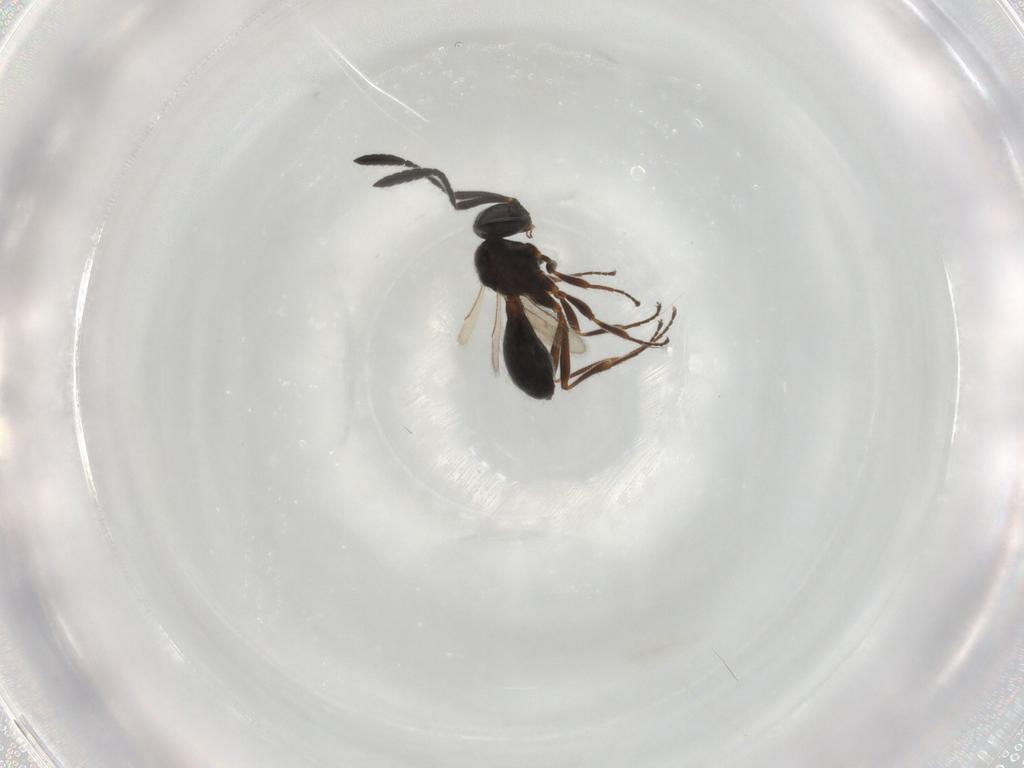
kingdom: Animalia
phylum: Arthropoda
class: Insecta
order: Hymenoptera
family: Scelionidae
